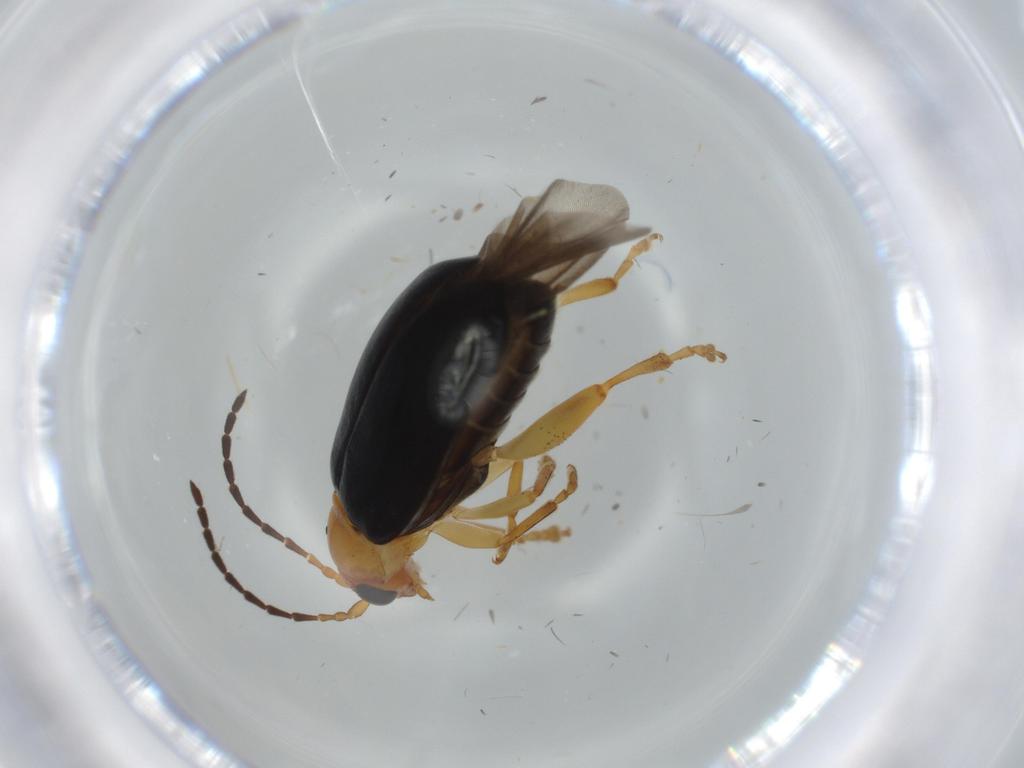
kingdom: Animalia
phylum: Arthropoda
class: Insecta
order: Coleoptera
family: Chrysomelidae
